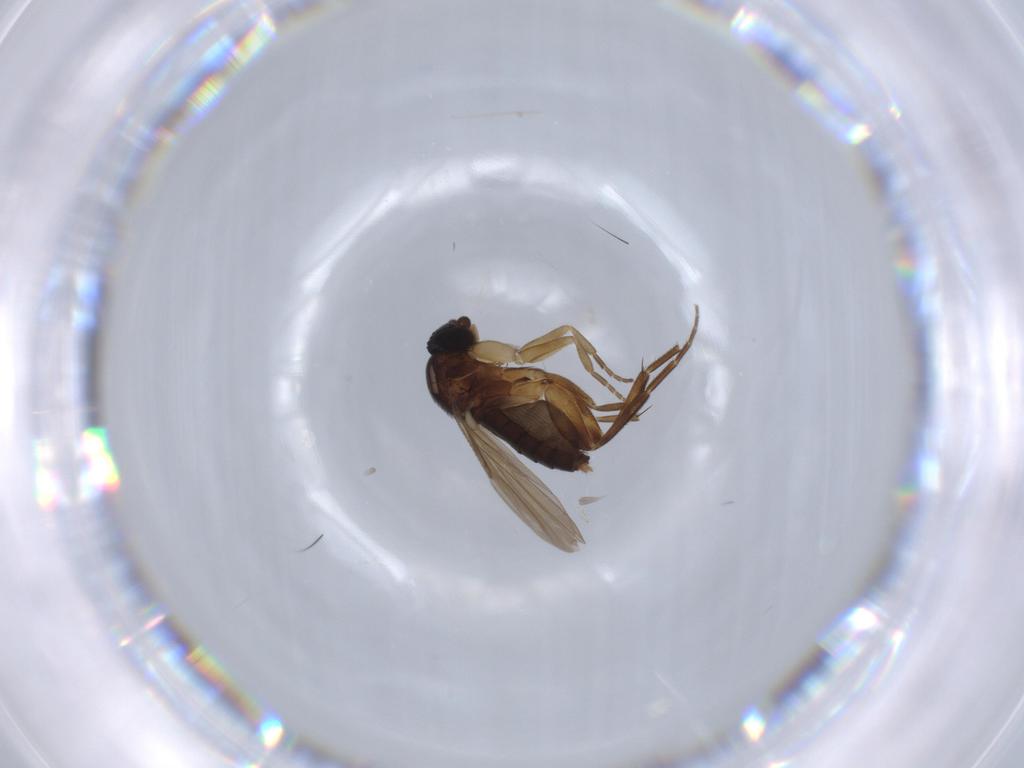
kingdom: Animalia
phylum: Arthropoda
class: Insecta
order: Diptera
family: Phoridae
